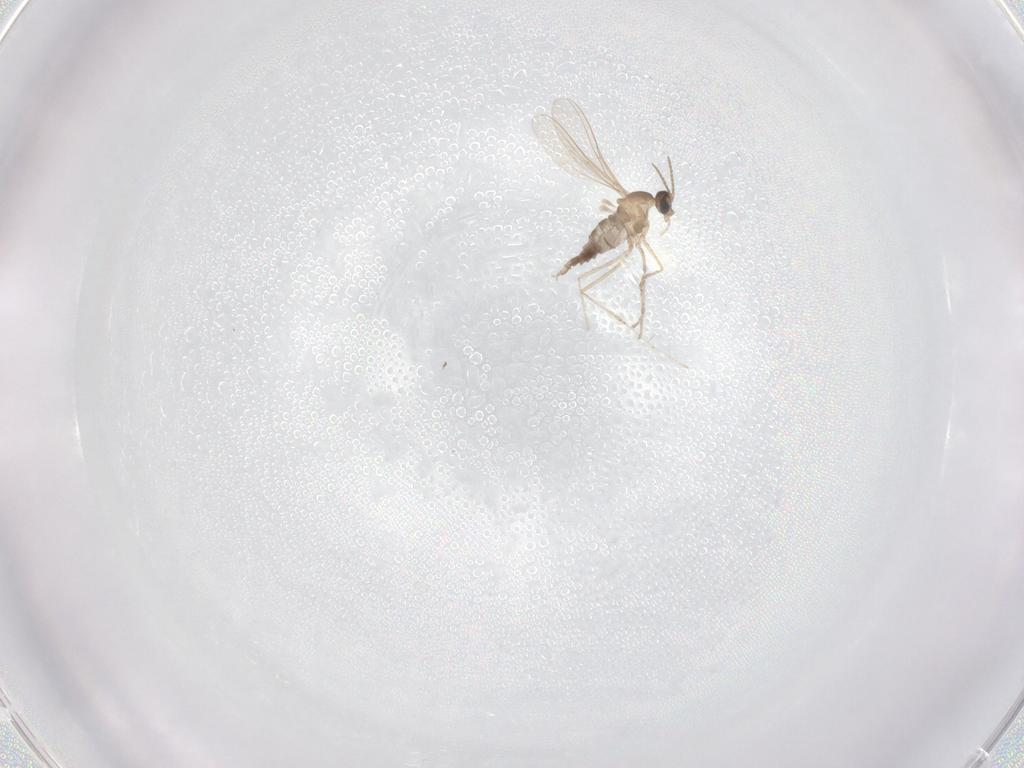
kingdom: Animalia
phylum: Arthropoda
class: Insecta
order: Diptera
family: Cecidomyiidae
